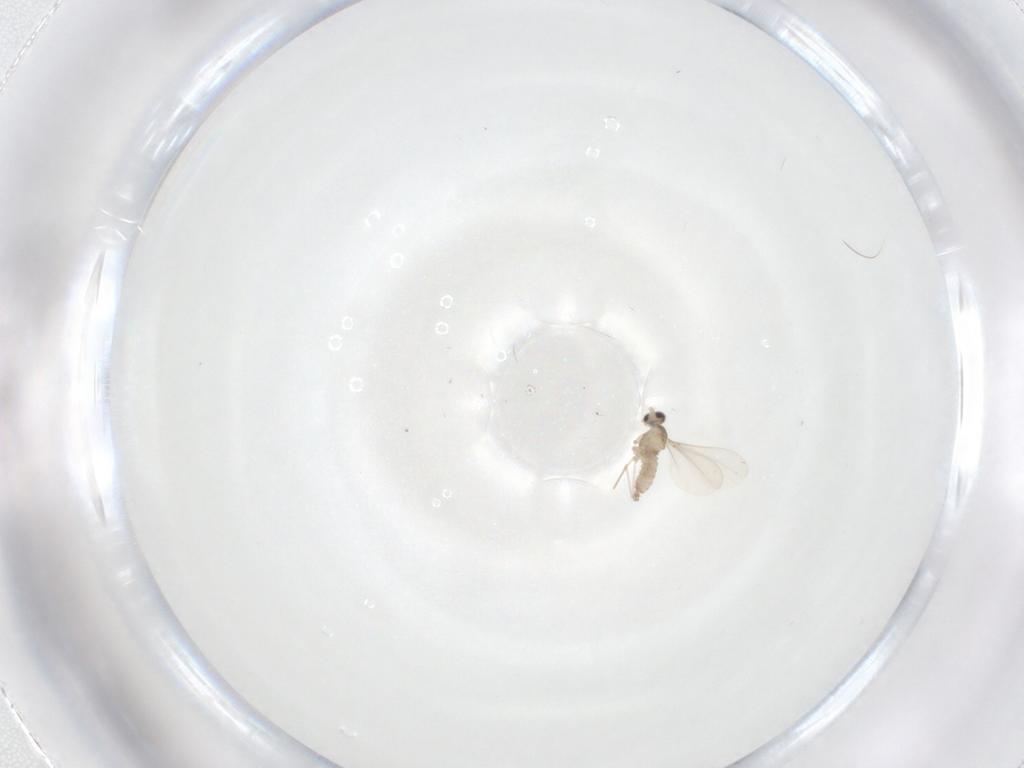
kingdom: Animalia
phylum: Arthropoda
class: Insecta
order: Diptera
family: Cecidomyiidae
